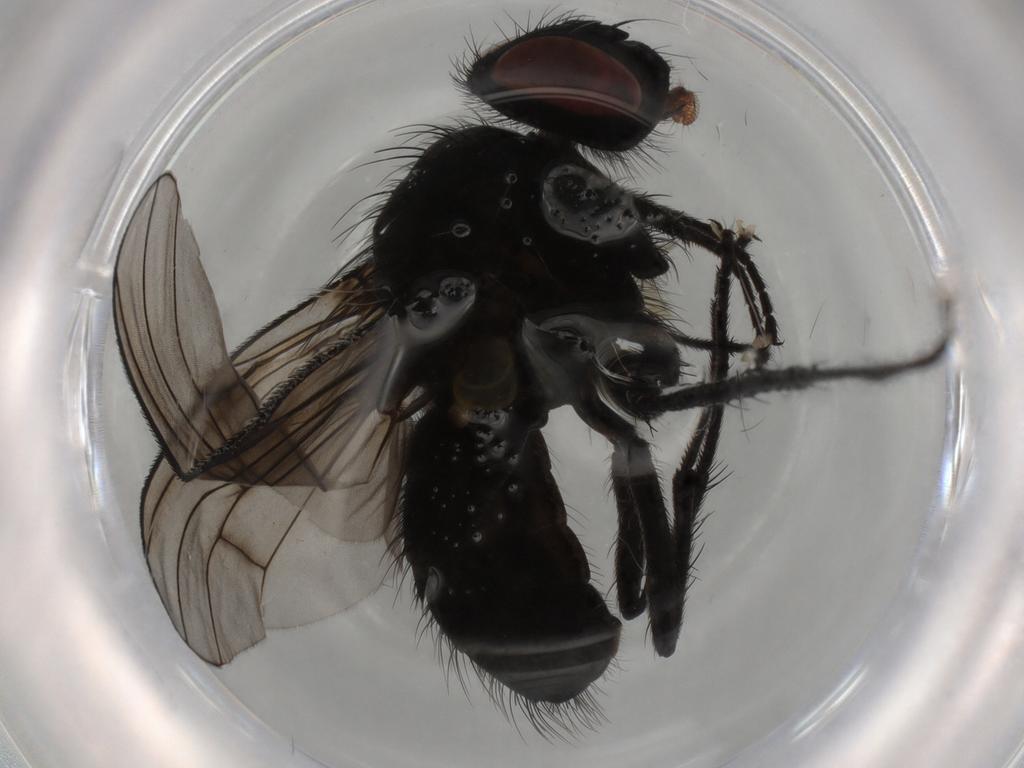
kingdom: Animalia
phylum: Arthropoda
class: Insecta
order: Diptera
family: Muscidae
